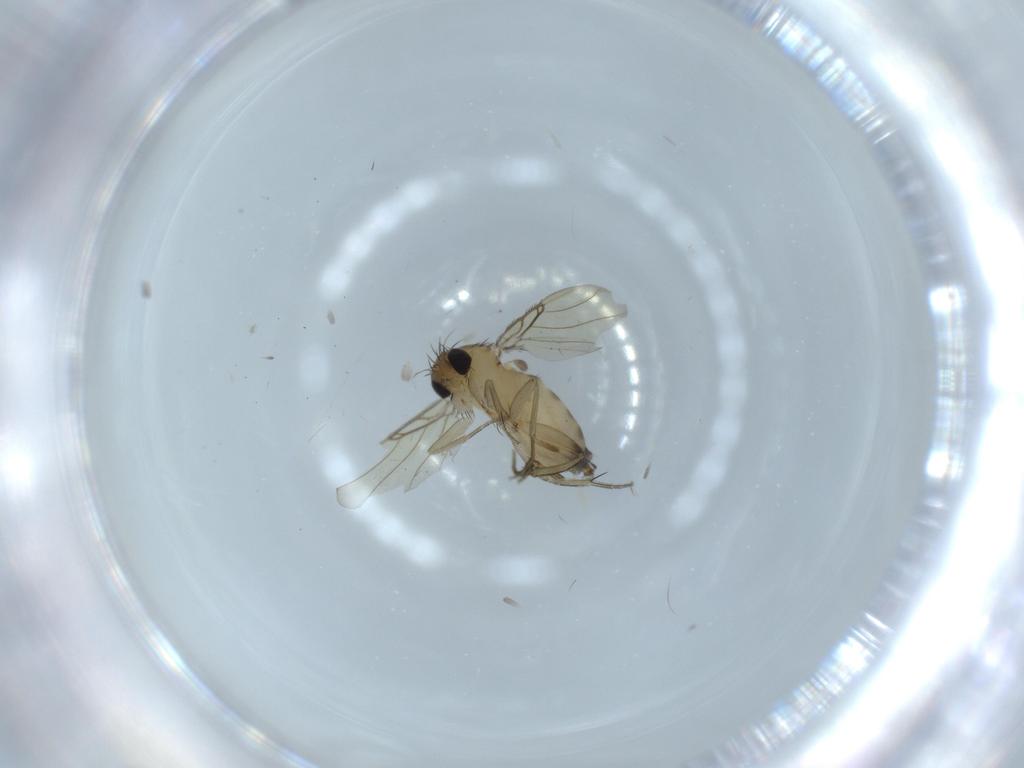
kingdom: Animalia
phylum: Arthropoda
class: Insecta
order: Diptera
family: Phoridae
